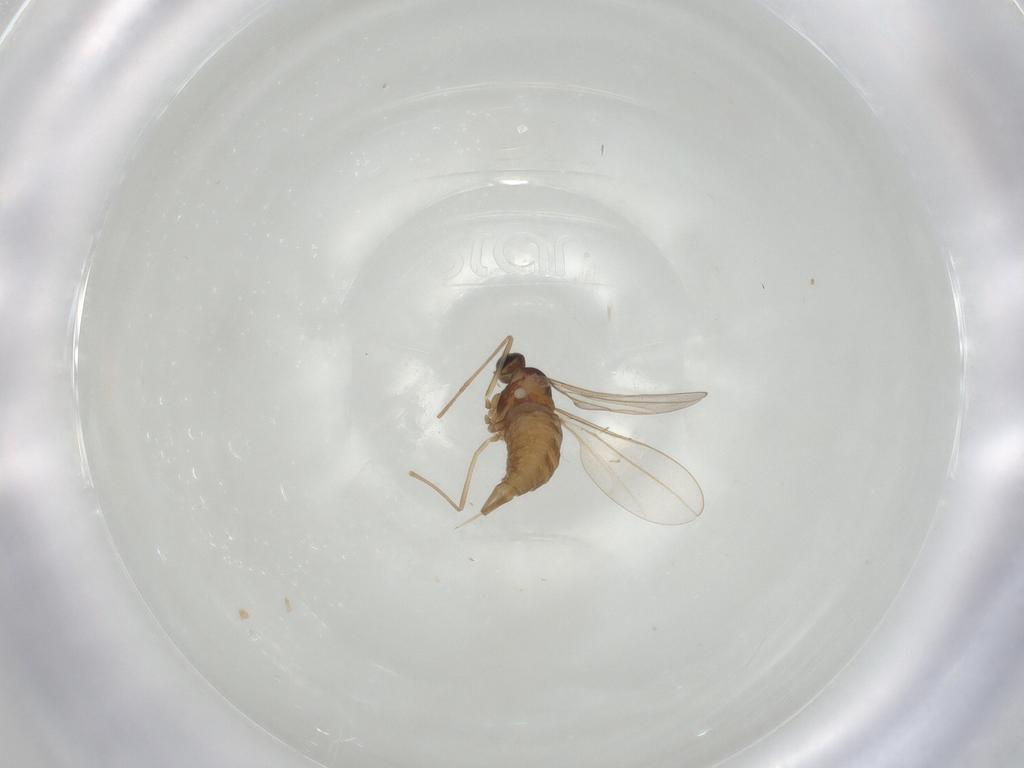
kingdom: Animalia
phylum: Arthropoda
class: Insecta
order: Diptera
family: Cecidomyiidae
